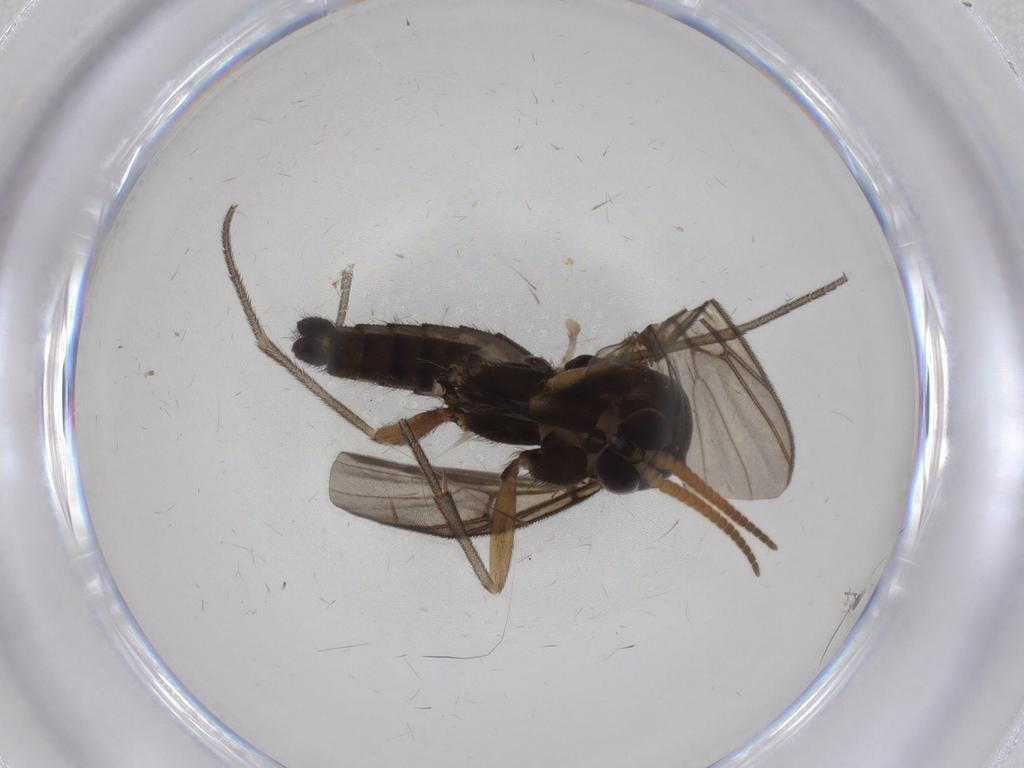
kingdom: Animalia
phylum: Arthropoda
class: Insecta
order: Diptera
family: Limoniidae
